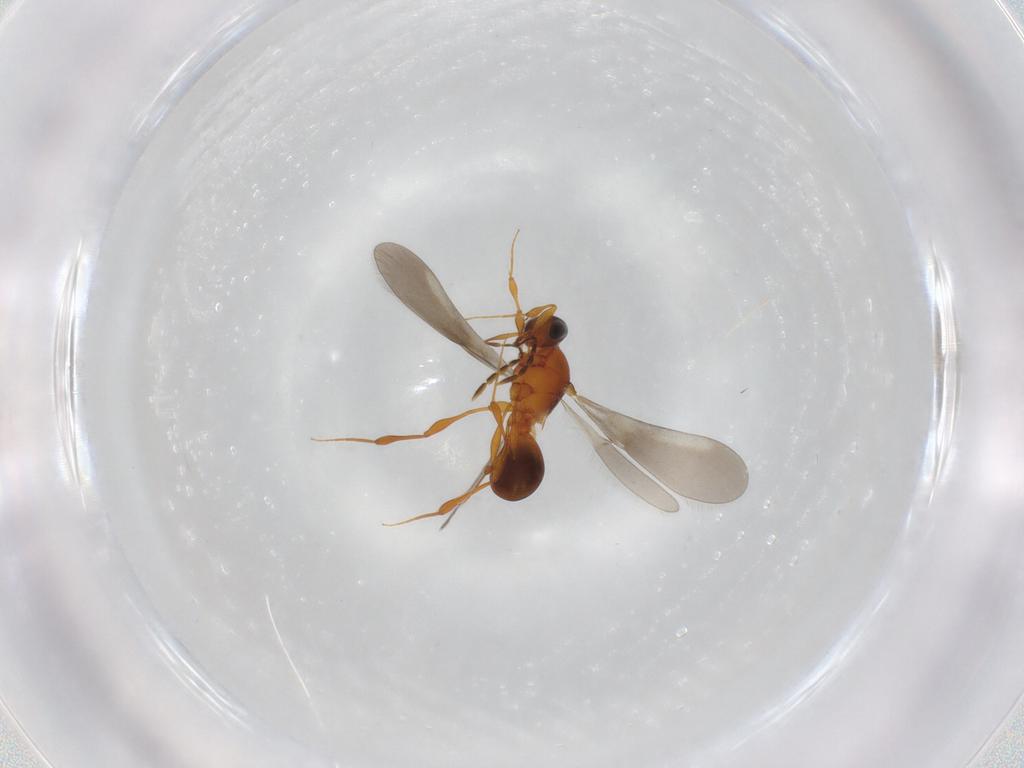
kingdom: Animalia
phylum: Arthropoda
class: Insecta
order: Hymenoptera
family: Platygastridae
